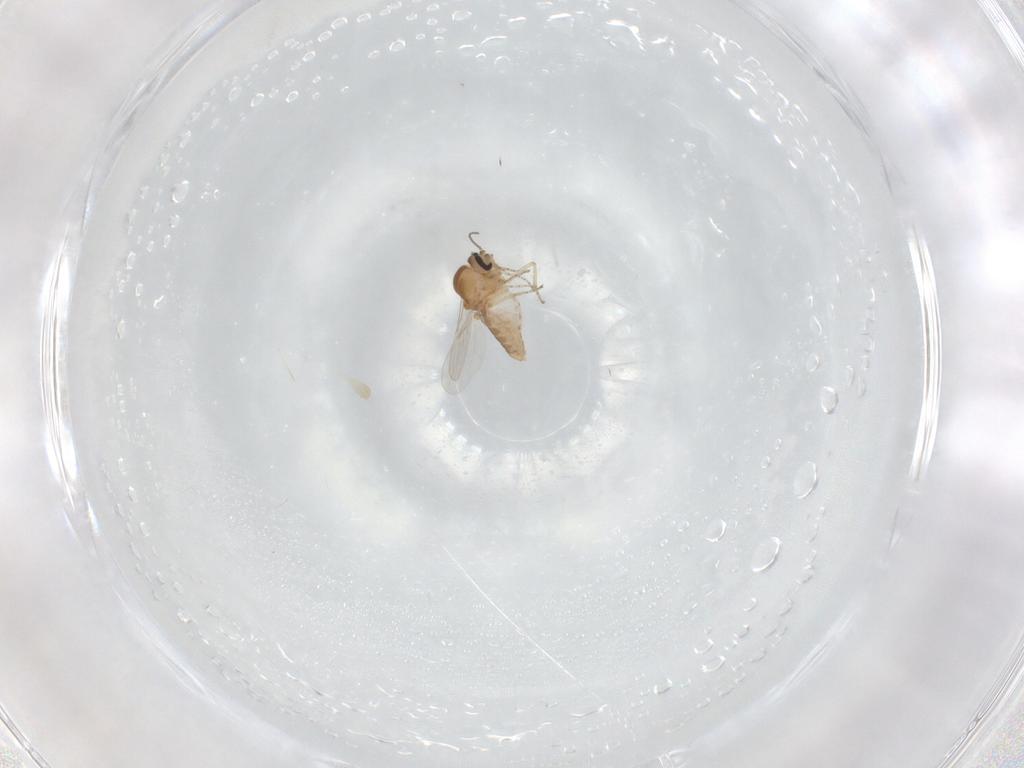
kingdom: Animalia
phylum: Arthropoda
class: Insecta
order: Diptera
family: Ceratopogonidae
